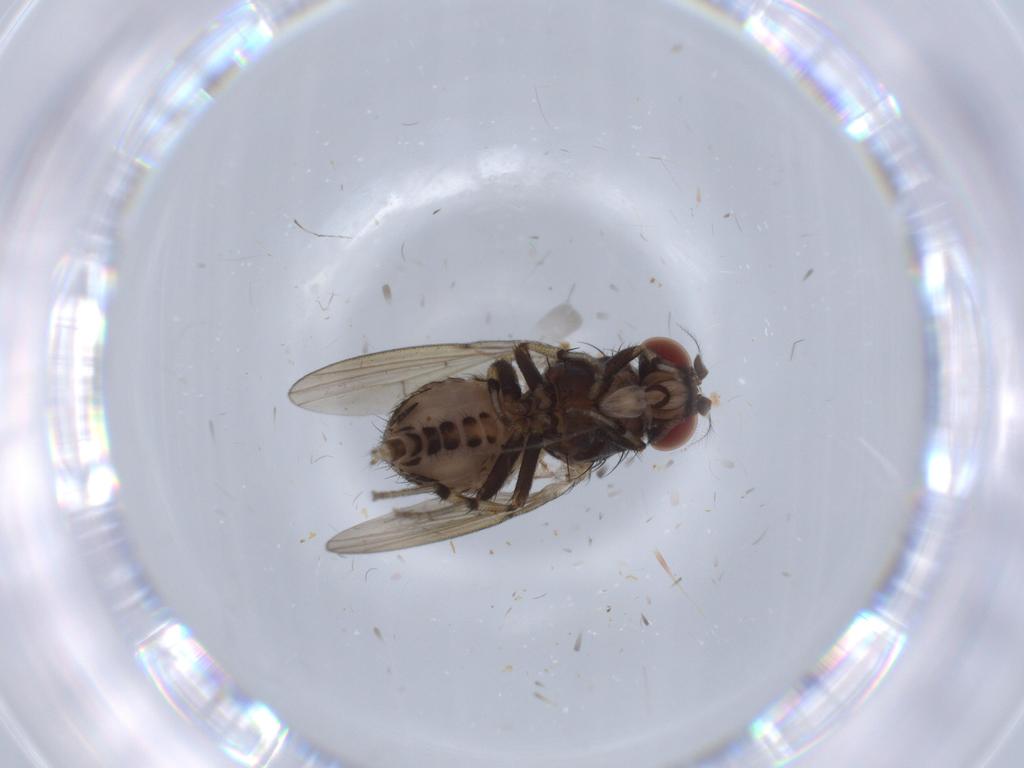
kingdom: Animalia
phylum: Arthropoda
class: Insecta
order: Diptera
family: Chironomidae
